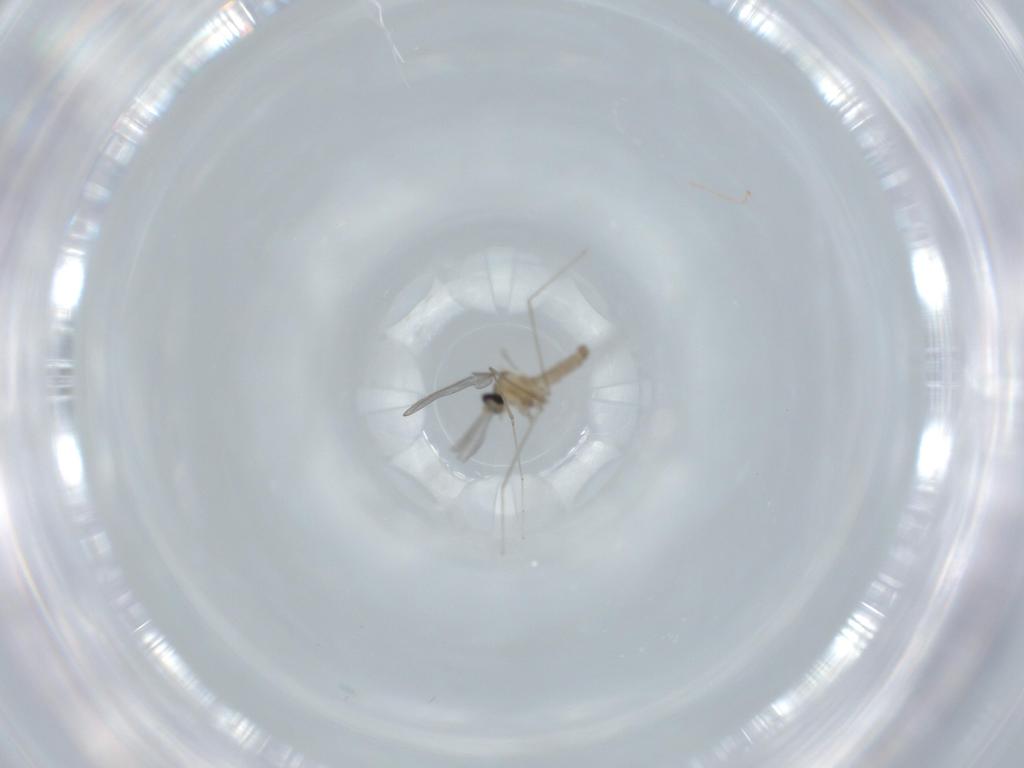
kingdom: Animalia
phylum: Arthropoda
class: Insecta
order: Diptera
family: Cecidomyiidae
